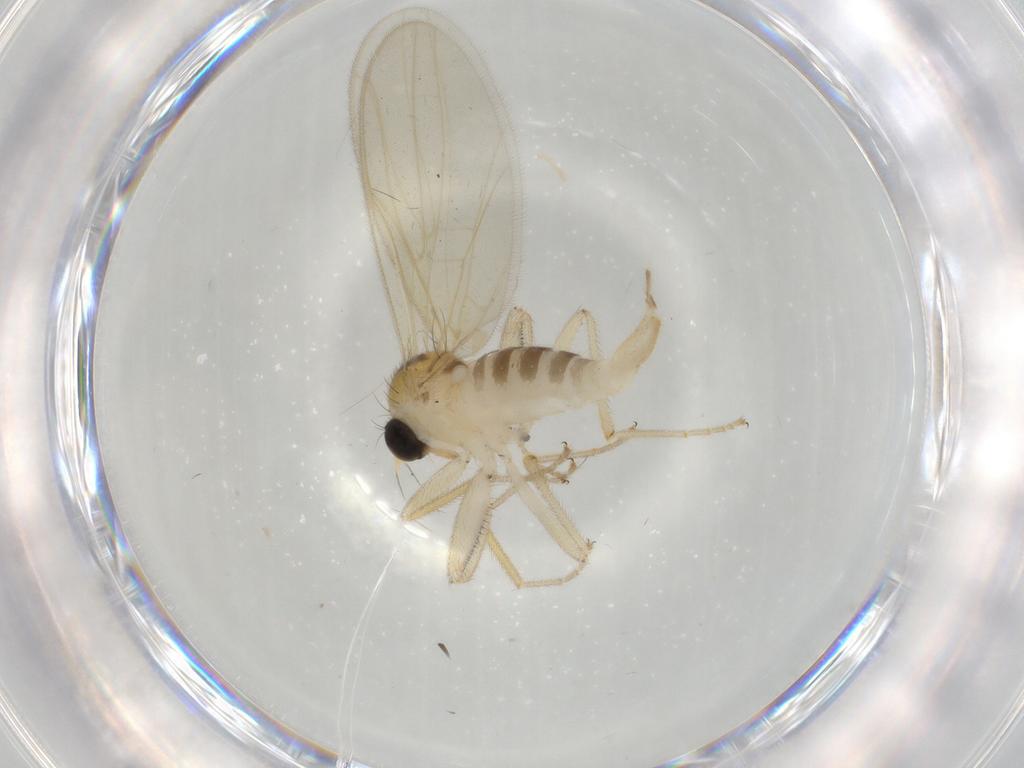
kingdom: Animalia
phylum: Arthropoda
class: Insecta
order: Diptera
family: Hybotidae
